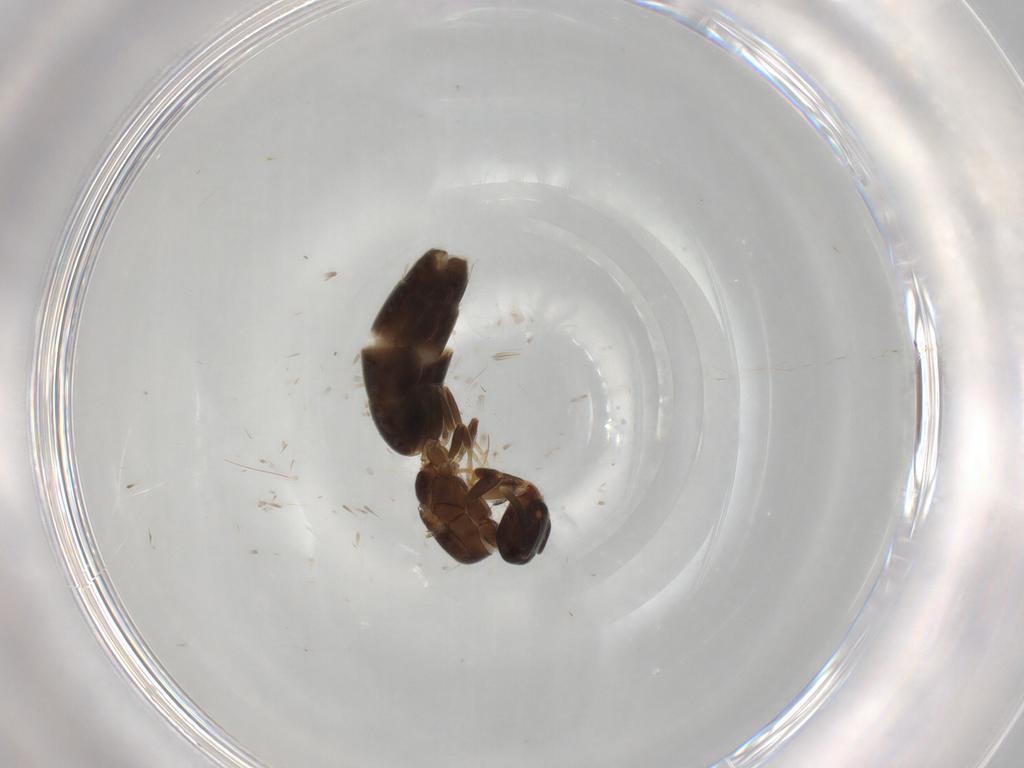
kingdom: Animalia
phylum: Arthropoda
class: Insecta
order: Hymenoptera
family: Formicidae
